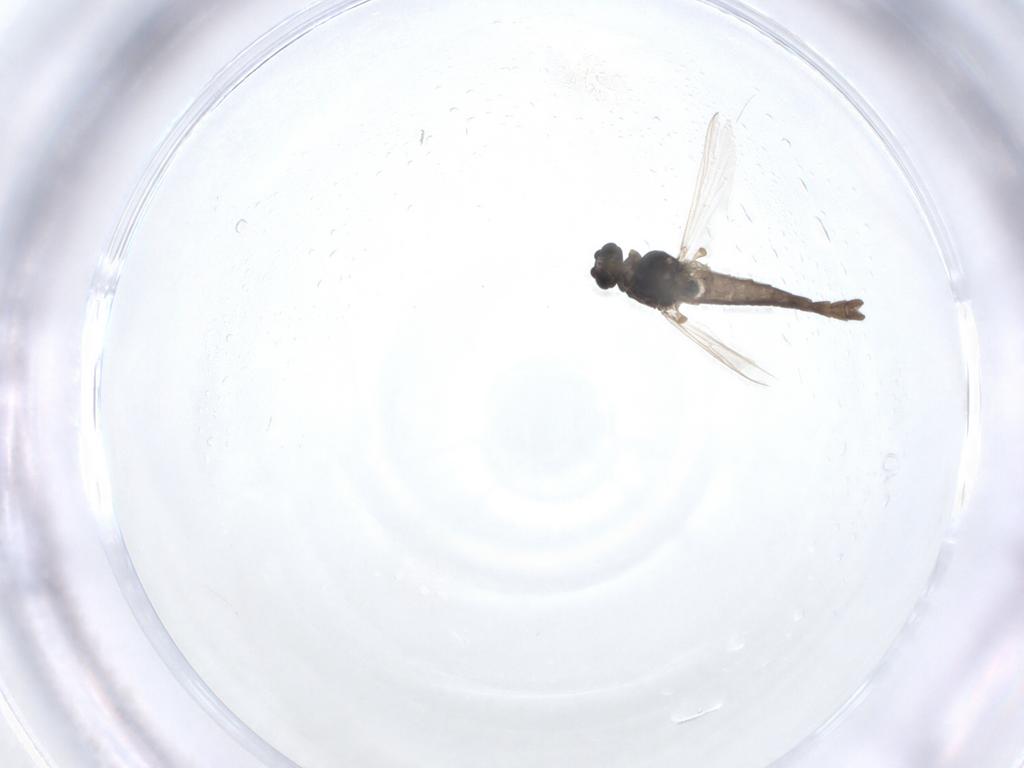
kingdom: Animalia
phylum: Arthropoda
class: Insecta
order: Diptera
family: Chironomidae
